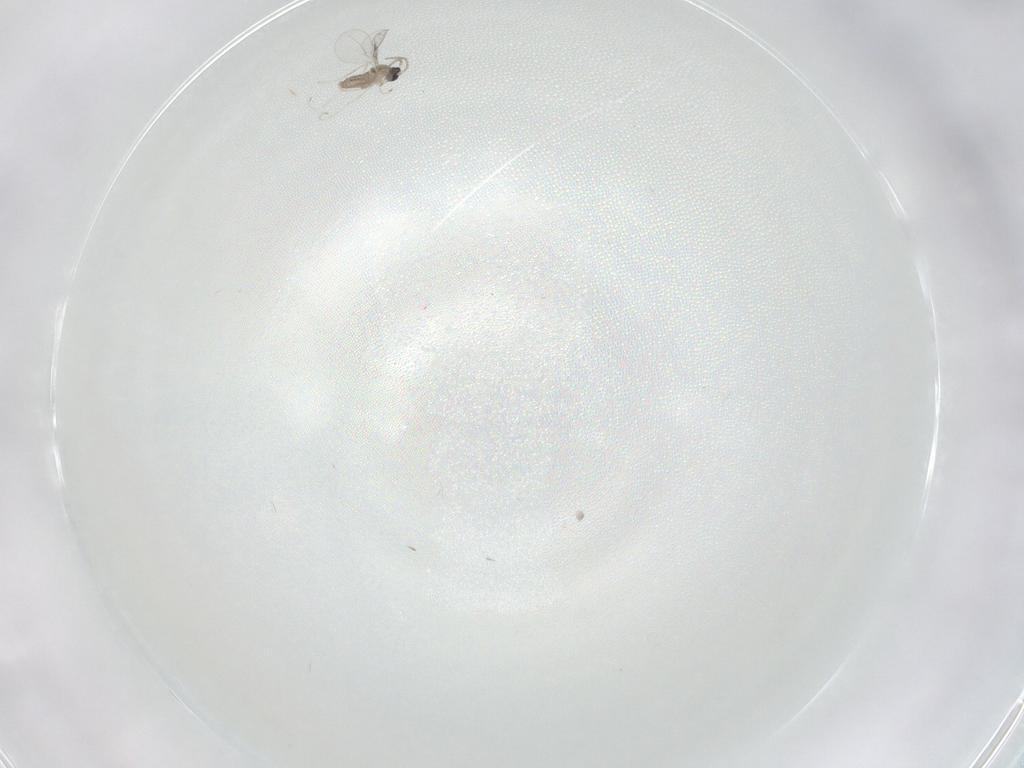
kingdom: Animalia
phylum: Arthropoda
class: Insecta
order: Diptera
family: Cecidomyiidae
